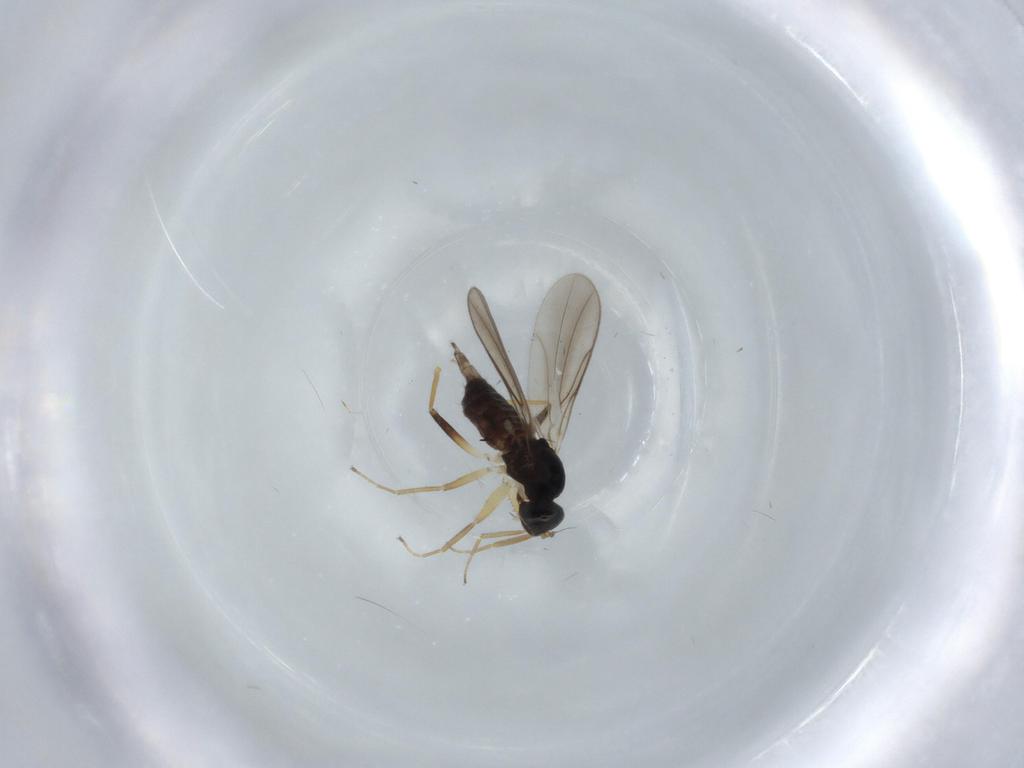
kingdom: Animalia
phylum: Arthropoda
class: Insecta
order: Diptera
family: Hybotidae
